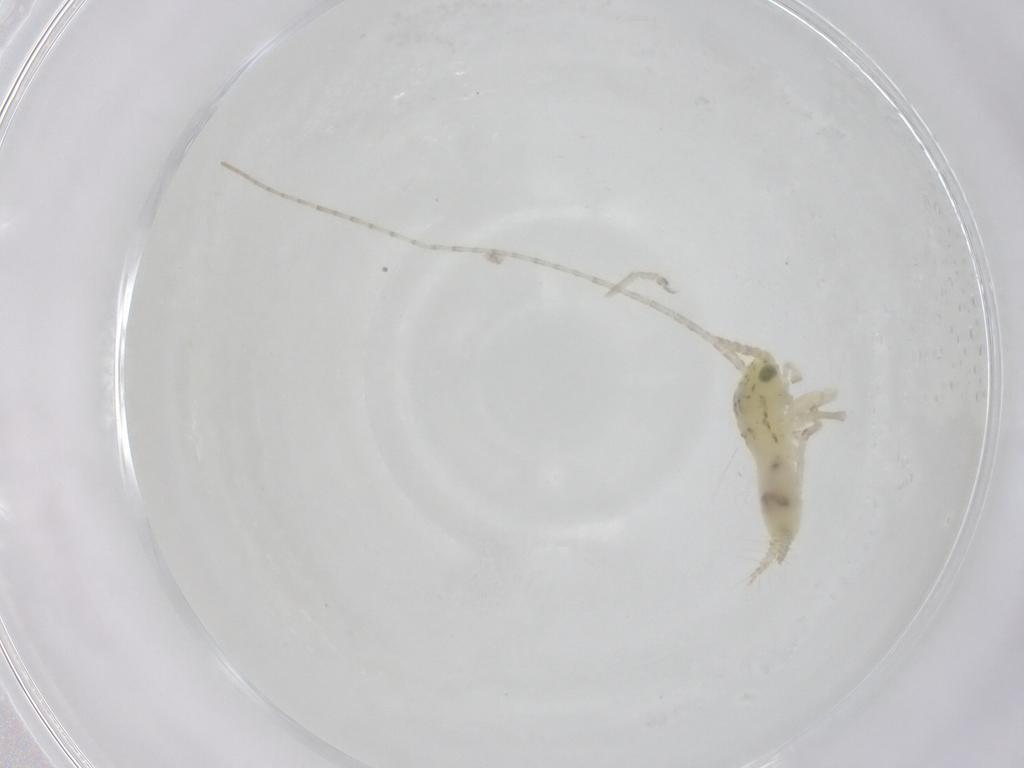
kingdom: Animalia
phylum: Arthropoda
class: Insecta
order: Orthoptera
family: Trigonidiidae
